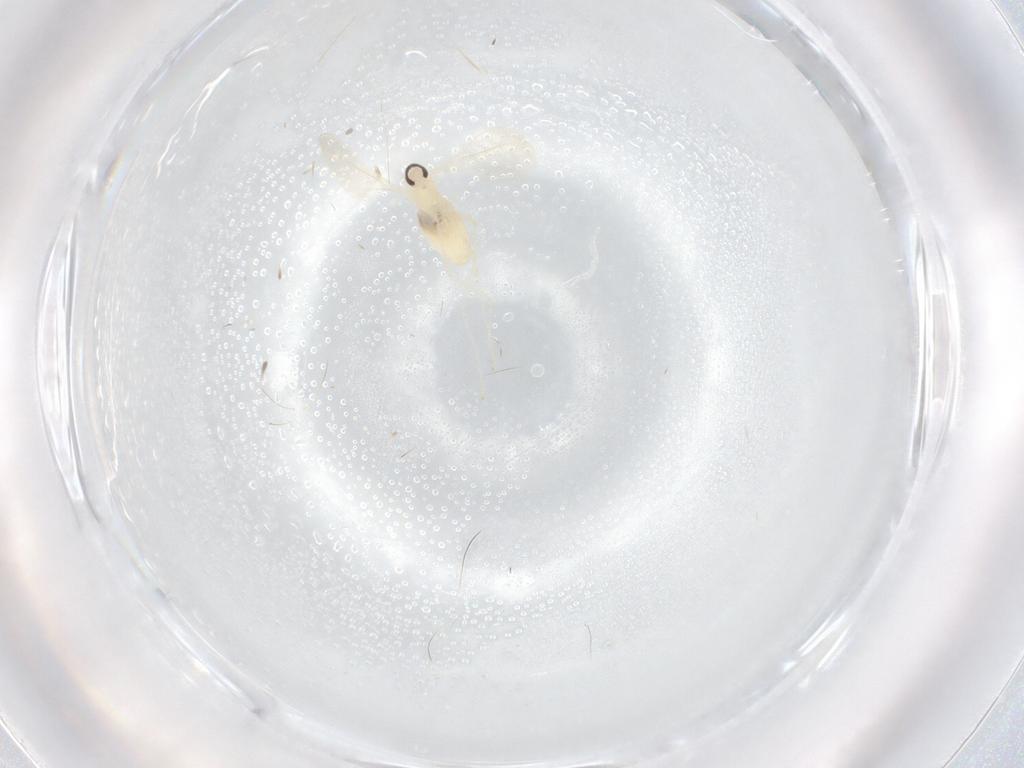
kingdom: Animalia
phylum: Arthropoda
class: Insecta
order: Diptera
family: Cecidomyiidae
